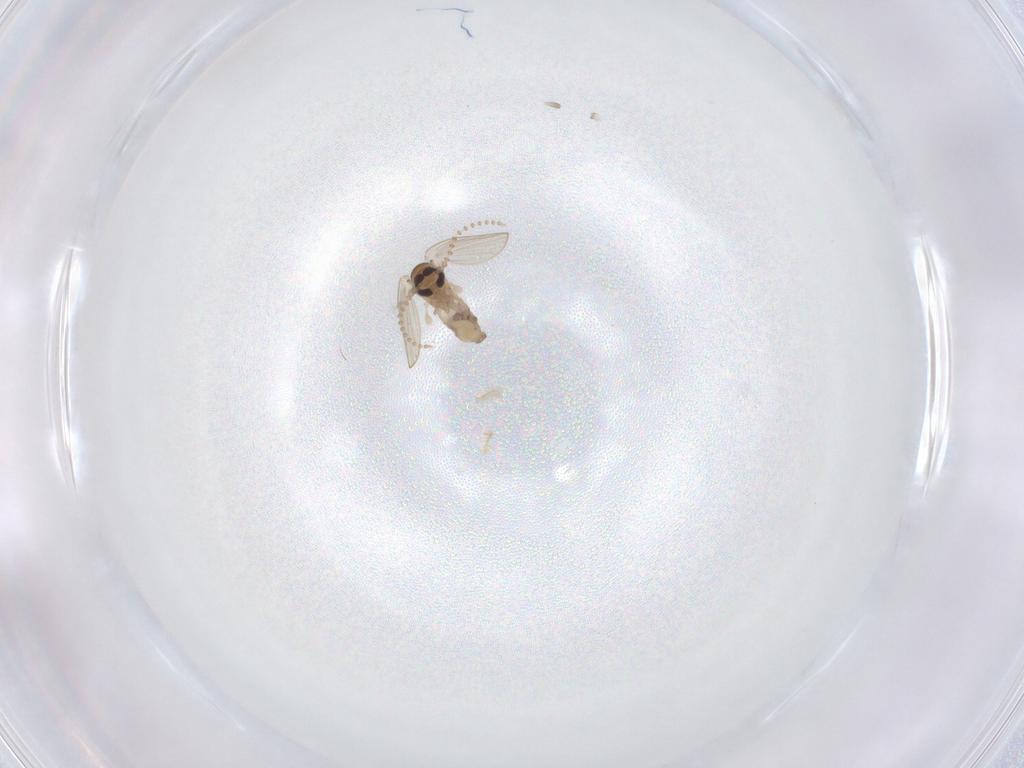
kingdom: Animalia
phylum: Arthropoda
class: Insecta
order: Diptera
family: Psychodidae
